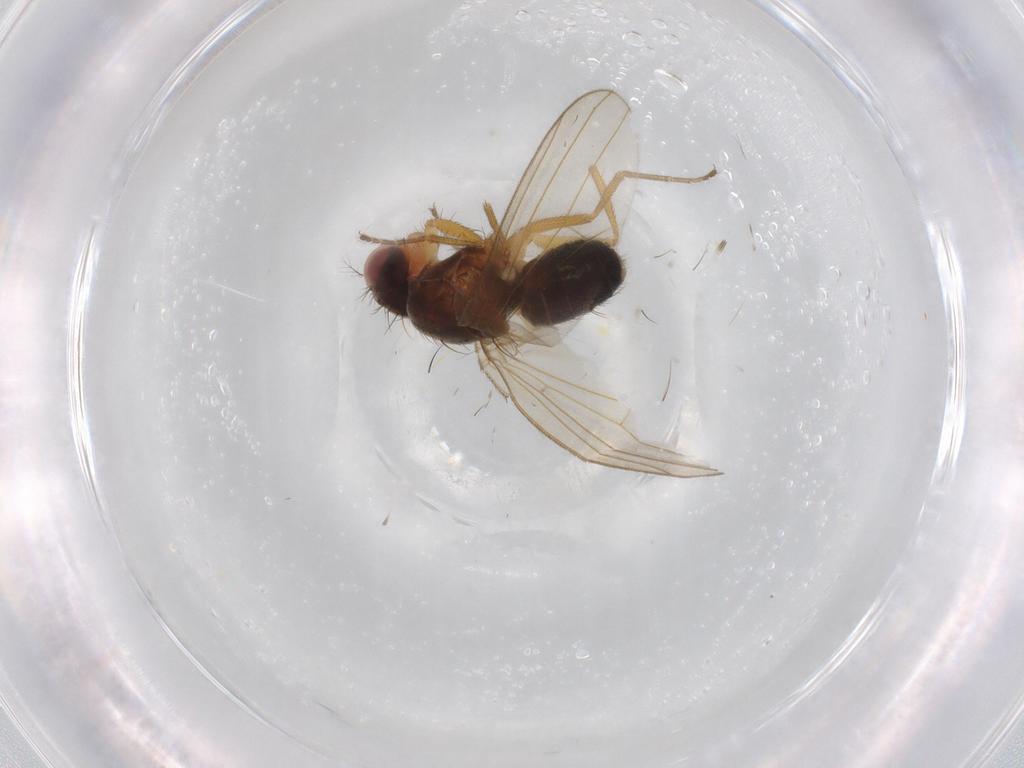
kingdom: Animalia
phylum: Arthropoda
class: Insecta
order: Diptera
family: Drosophilidae
